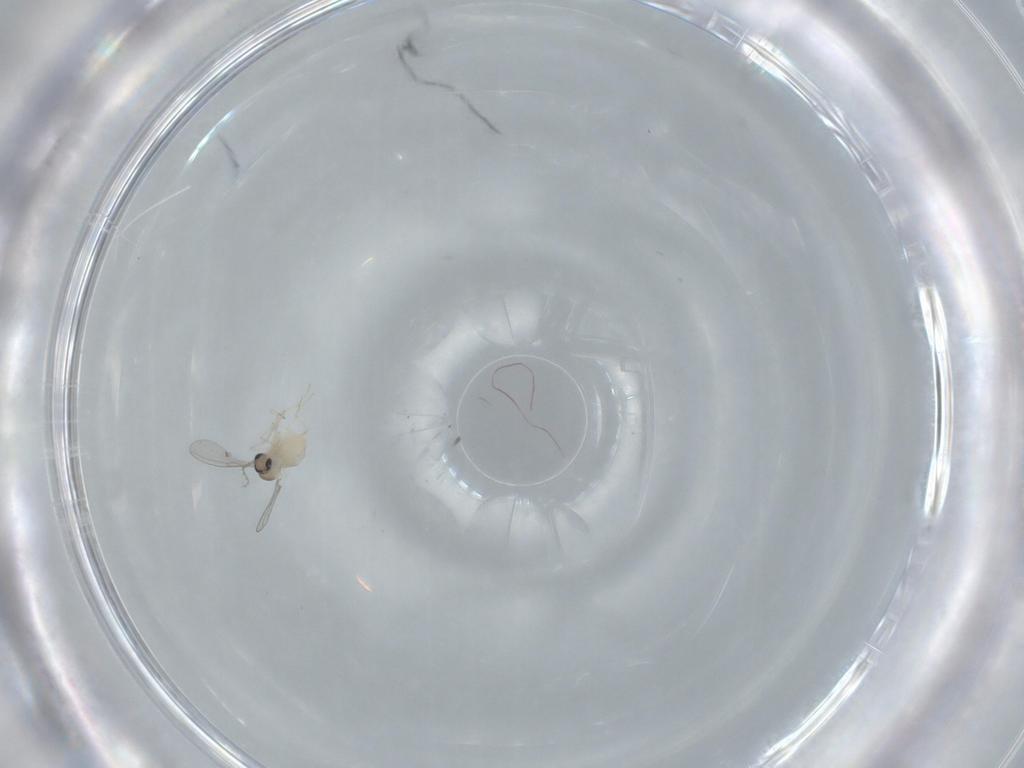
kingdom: Animalia
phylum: Arthropoda
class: Insecta
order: Diptera
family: Cecidomyiidae
